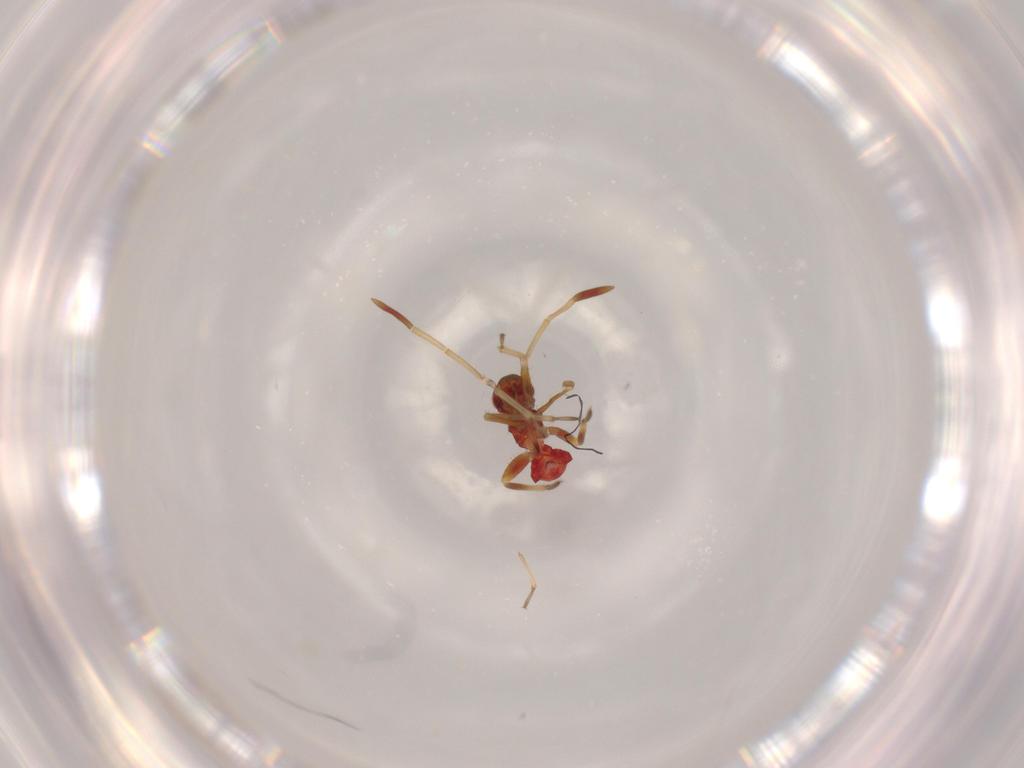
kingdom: Animalia
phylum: Arthropoda
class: Insecta
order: Hemiptera
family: Miridae
